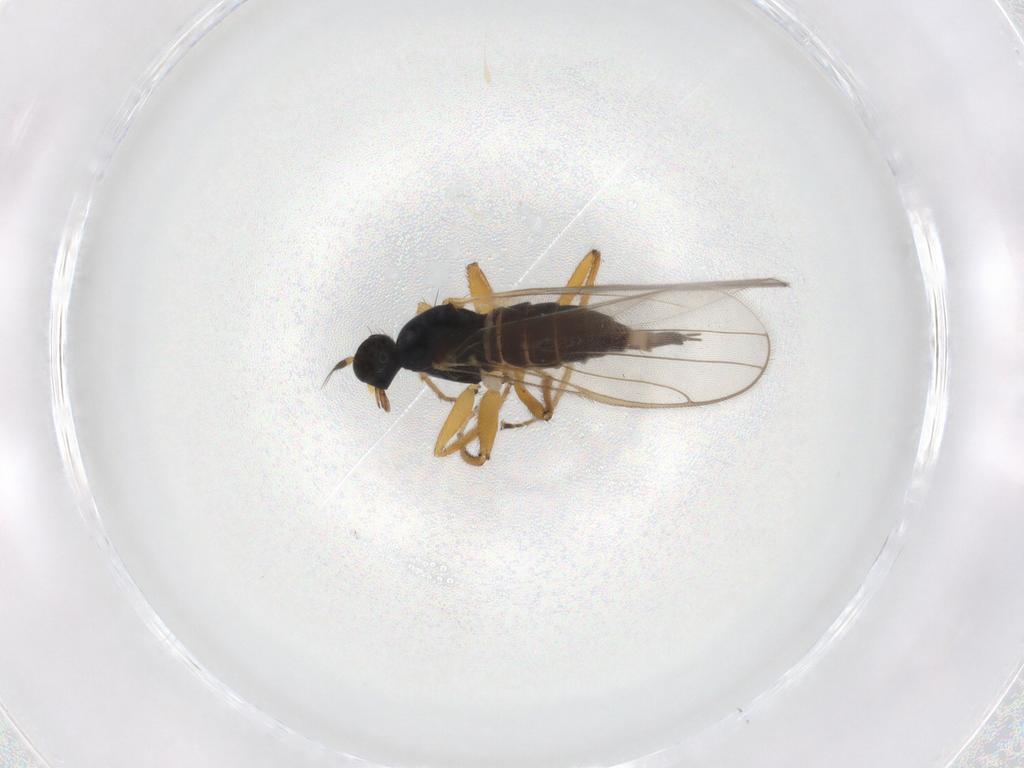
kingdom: Animalia
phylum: Arthropoda
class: Insecta
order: Diptera
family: Hybotidae
